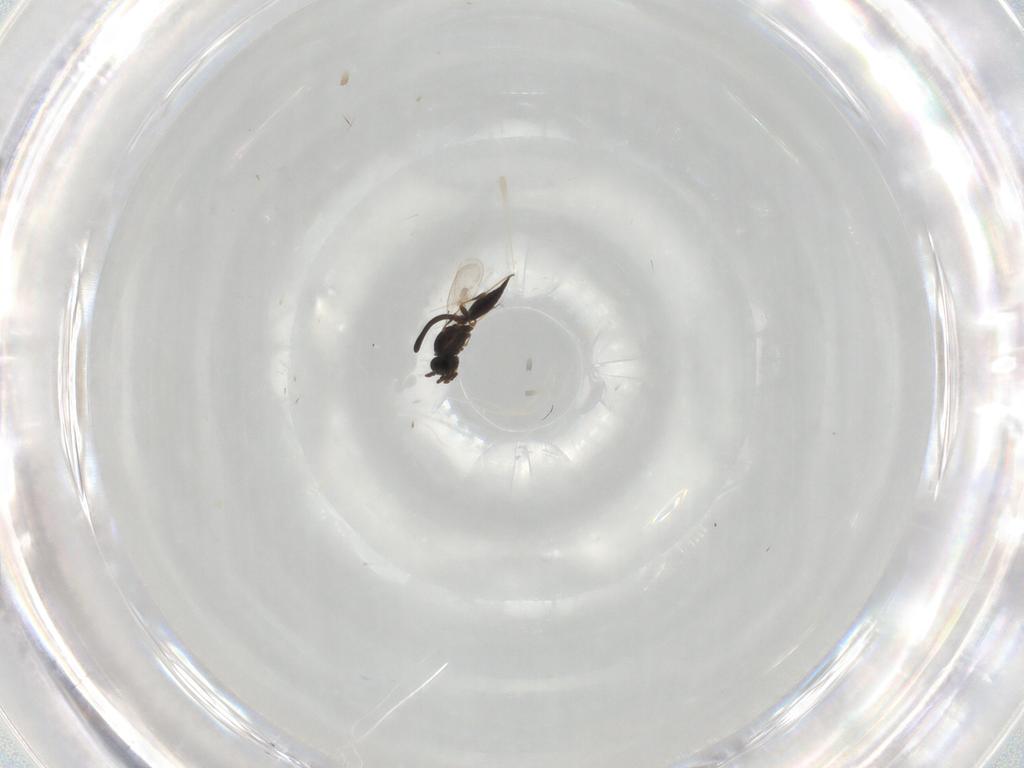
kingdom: Animalia
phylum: Arthropoda
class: Insecta
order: Hymenoptera
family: Platygastridae
